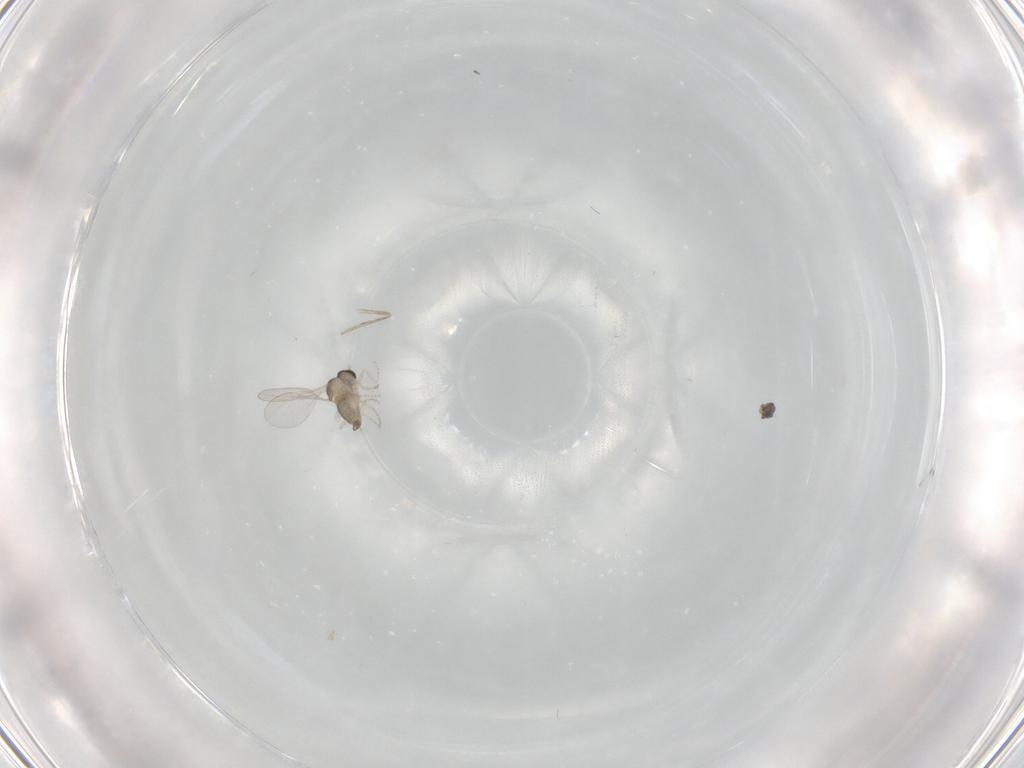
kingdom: Animalia
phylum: Arthropoda
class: Insecta
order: Diptera
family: Cecidomyiidae
